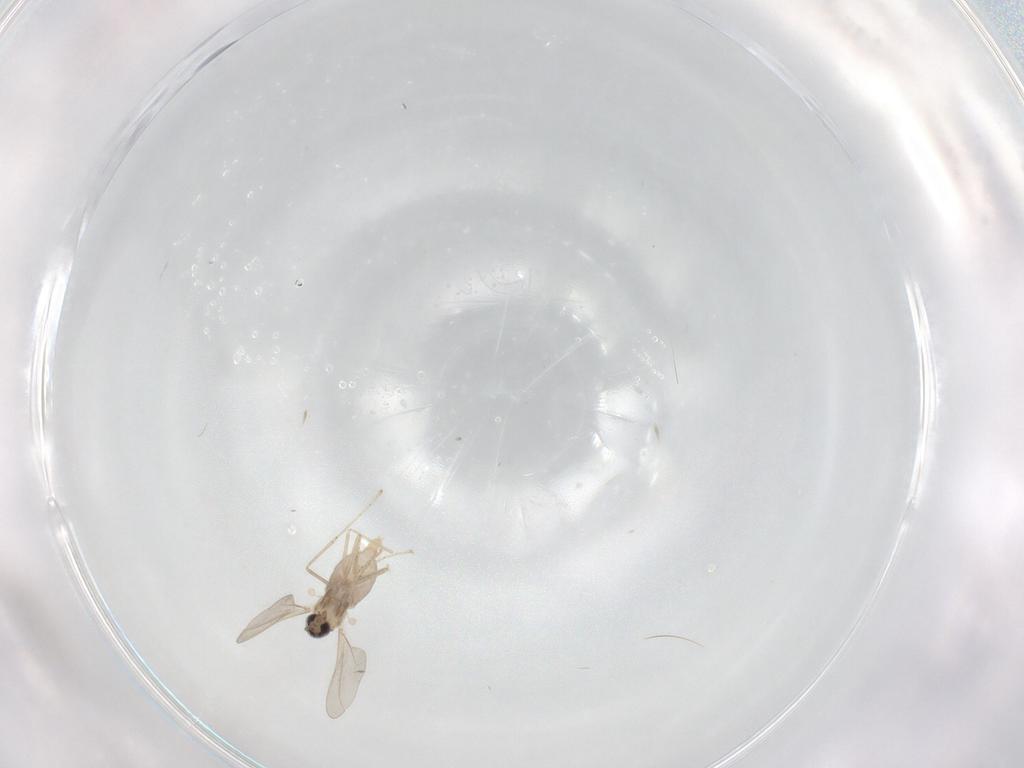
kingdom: Animalia
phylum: Arthropoda
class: Insecta
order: Diptera
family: Cecidomyiidae
